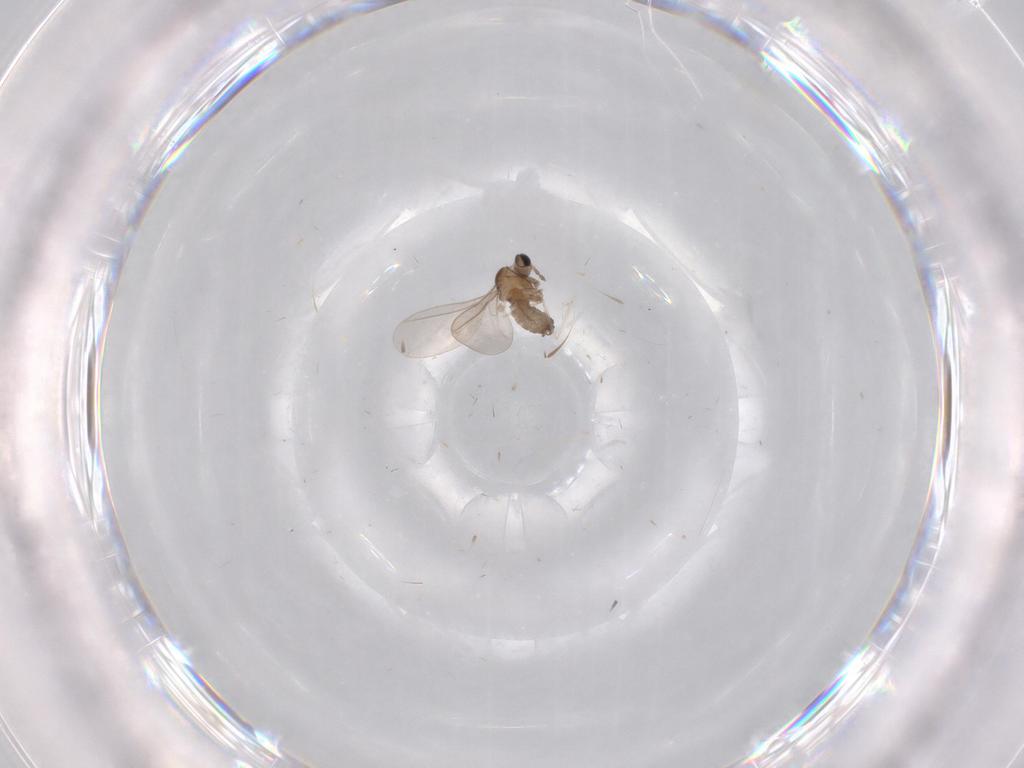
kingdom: Animalia
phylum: Arthropoda
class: Insecta
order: Diptera
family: Cecidomyiidae
